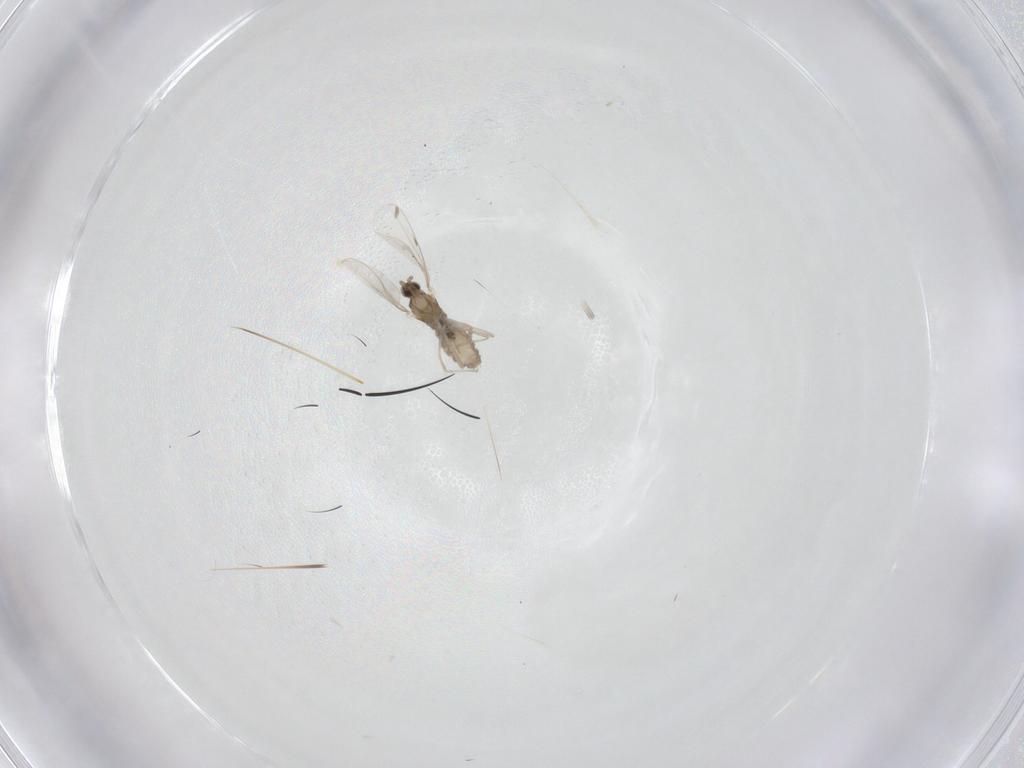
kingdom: Animalia
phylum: Arthropoda
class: Insecta
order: Diptera
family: Cecidomyiidae
